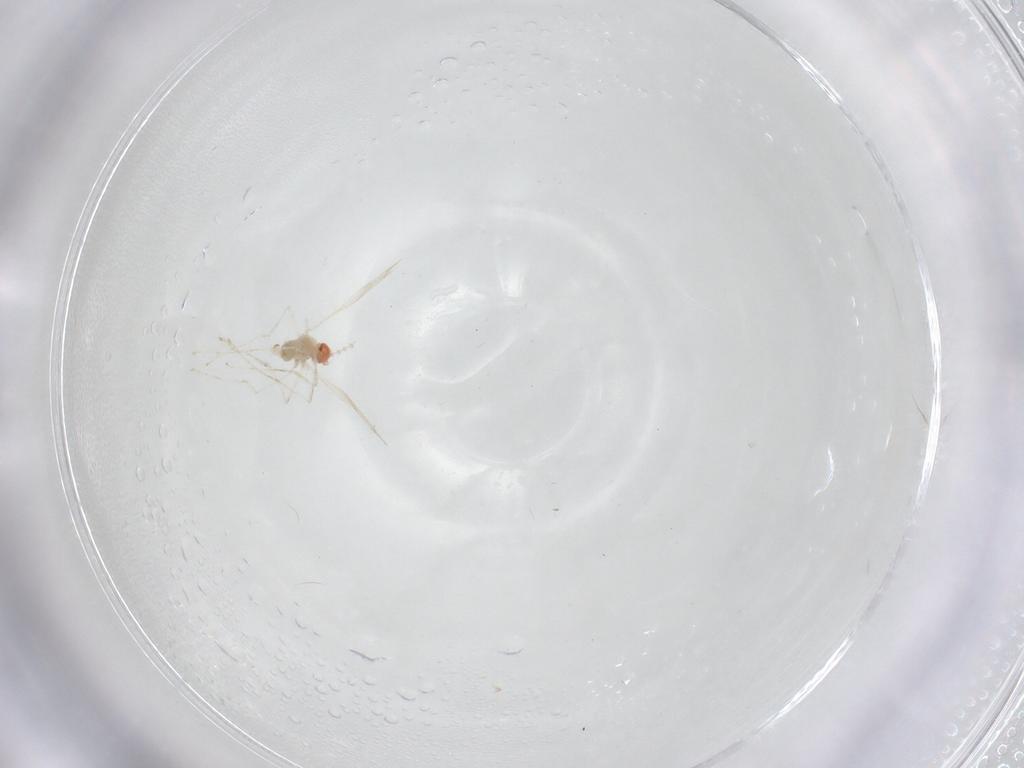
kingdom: Animalia
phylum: Arthropoda
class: Insecta
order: Diptera
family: Cecidomyiidae
